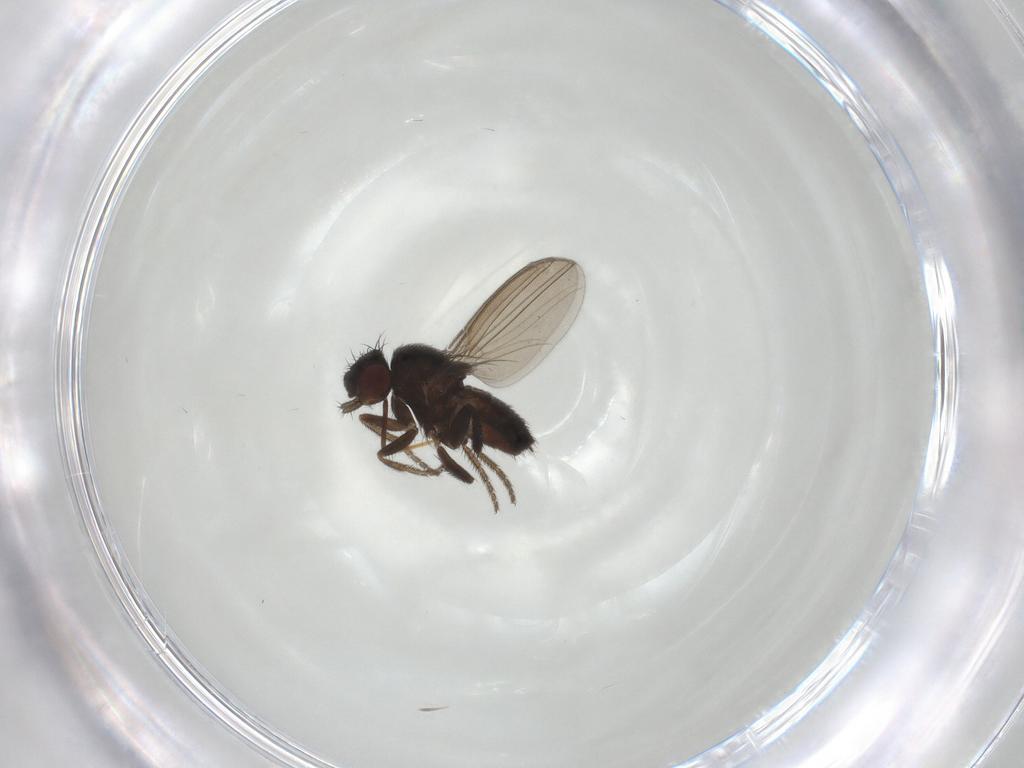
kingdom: Animalia
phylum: Arthropoda
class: Insecta
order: Diptera
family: Milichiidae
